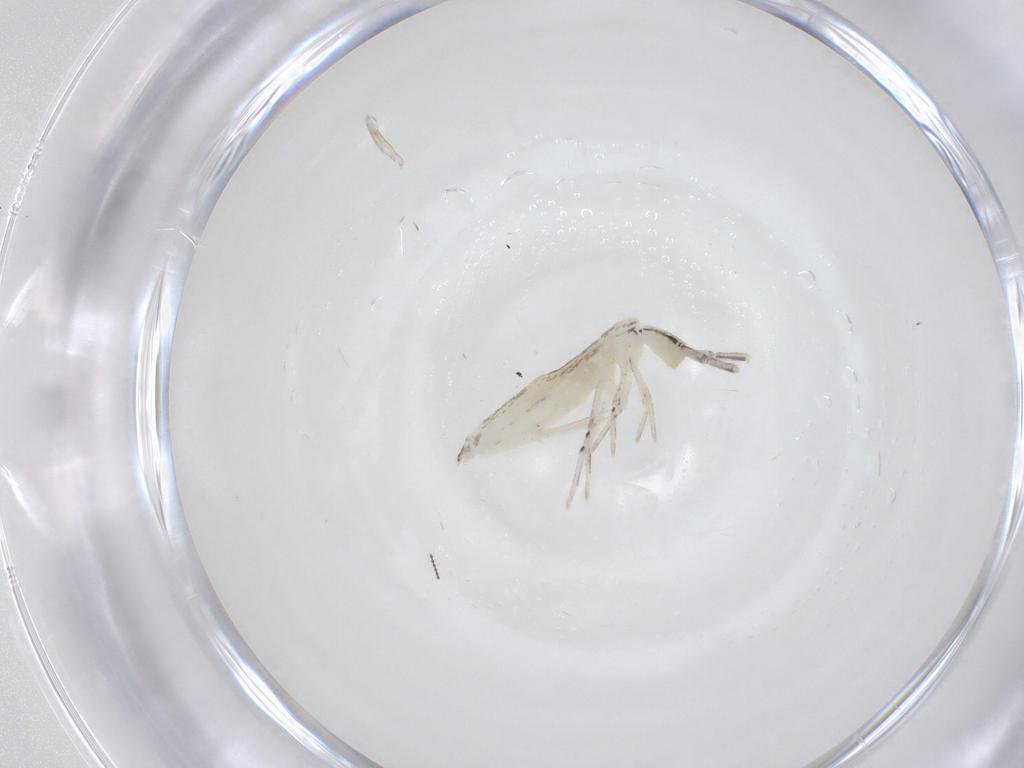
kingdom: Animalia
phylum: Arthropoda
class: Collembola
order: Entomobryomorpha
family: Entomobryidae
